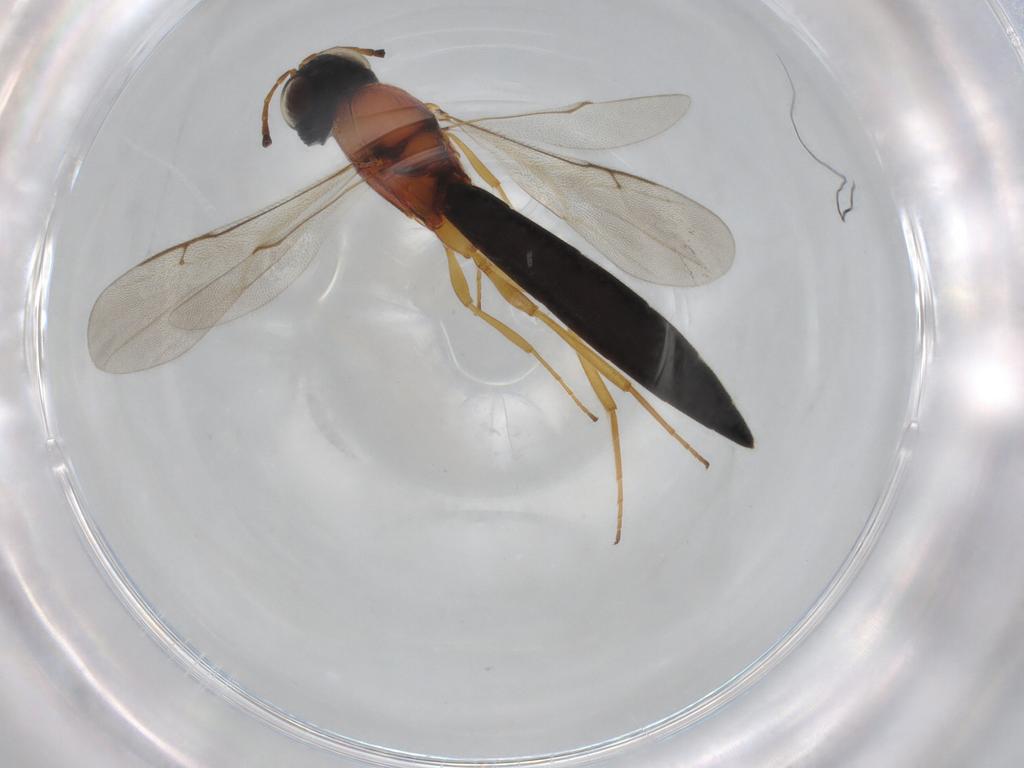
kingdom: Animalia
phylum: Arthropoda
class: Insecta
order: Hymenoptera
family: Scelionidae
